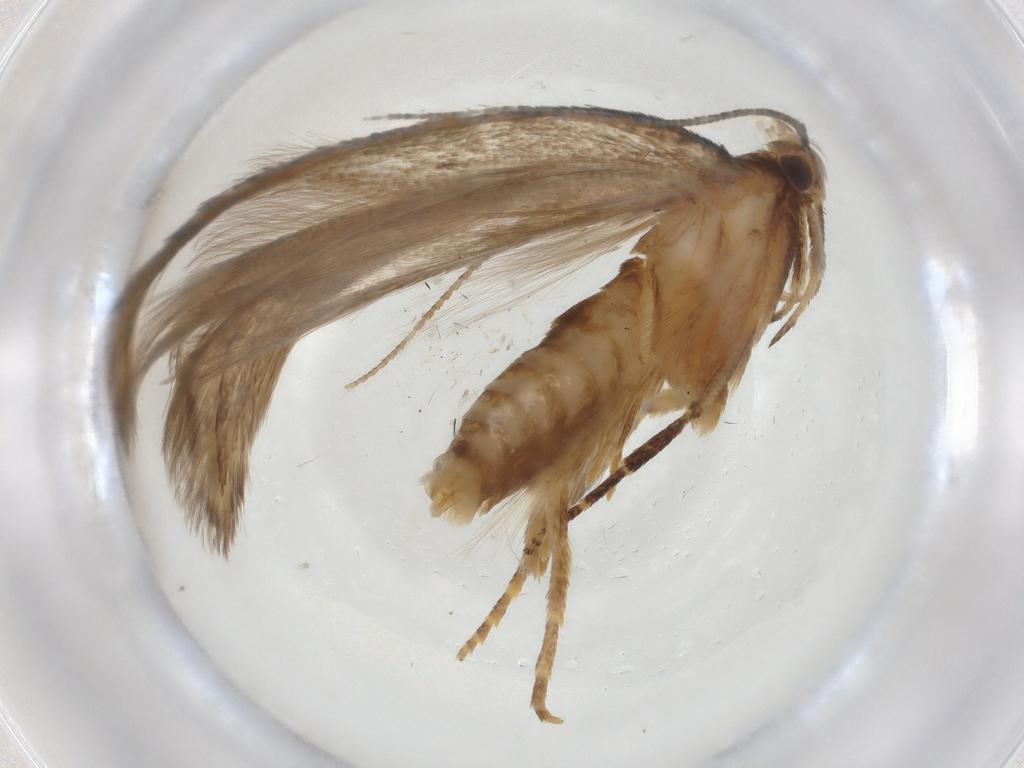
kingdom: Animalia
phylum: Arthropoda
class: Insecta
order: Lepidoptera
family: Gelechiidae
